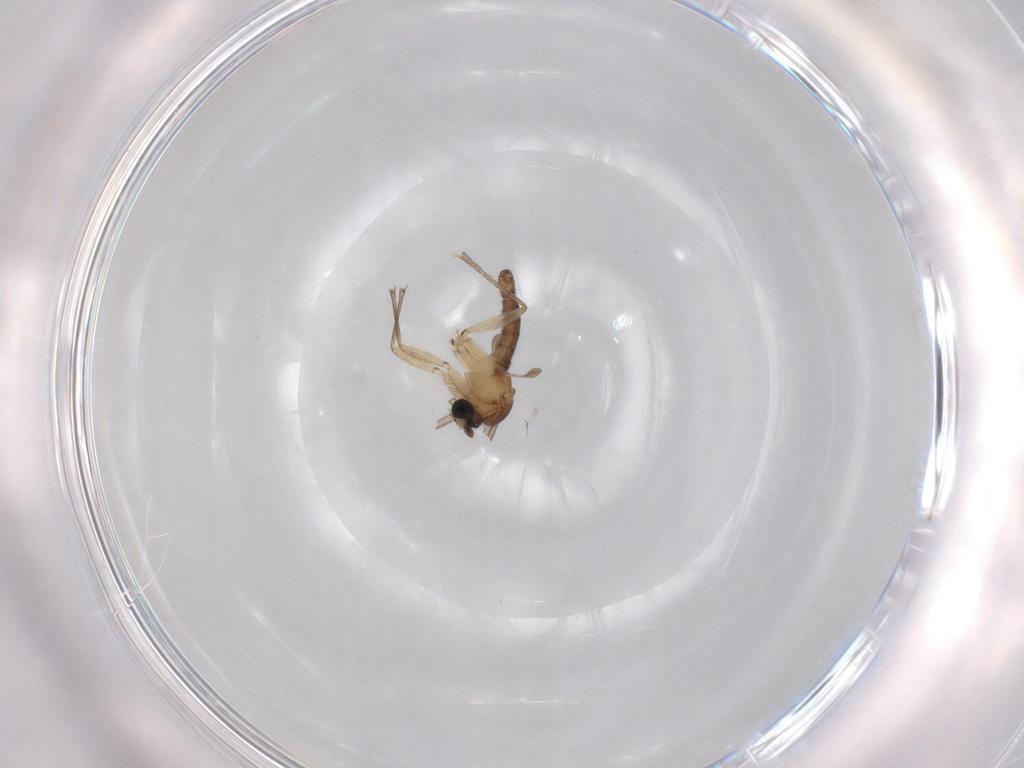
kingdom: Animalia
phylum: Arthropoda
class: Insecta
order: Diptera
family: Sciaridae
